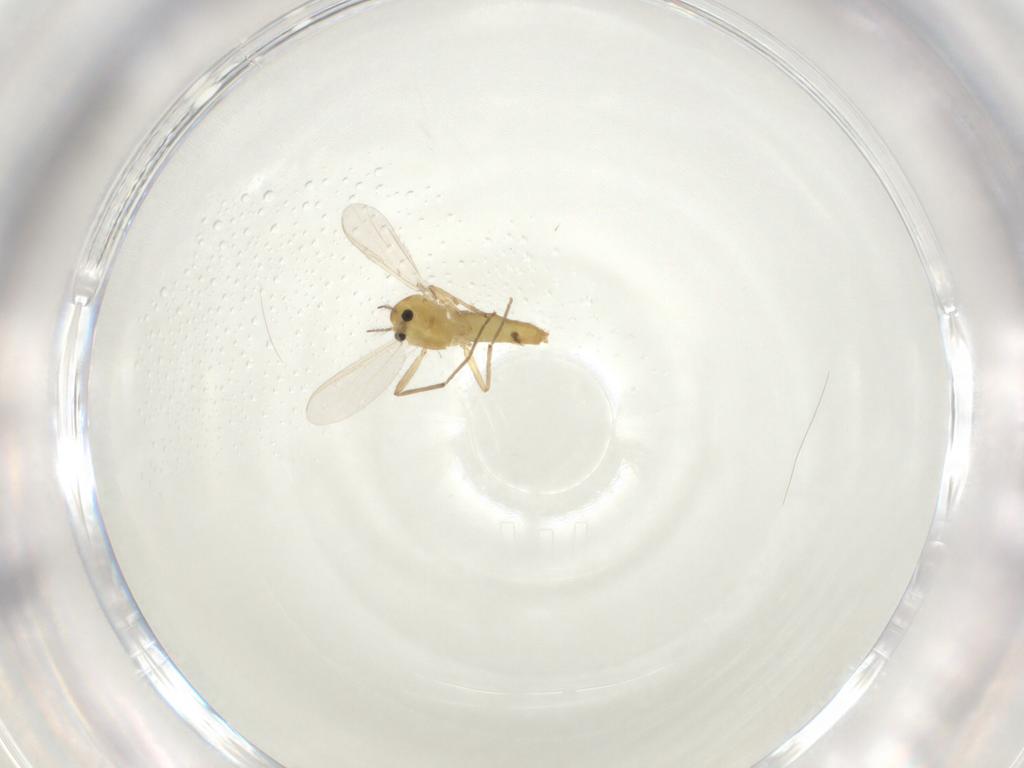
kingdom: Animalia
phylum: Arthropoda
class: Insecta
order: Diptera
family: Chironomidae
